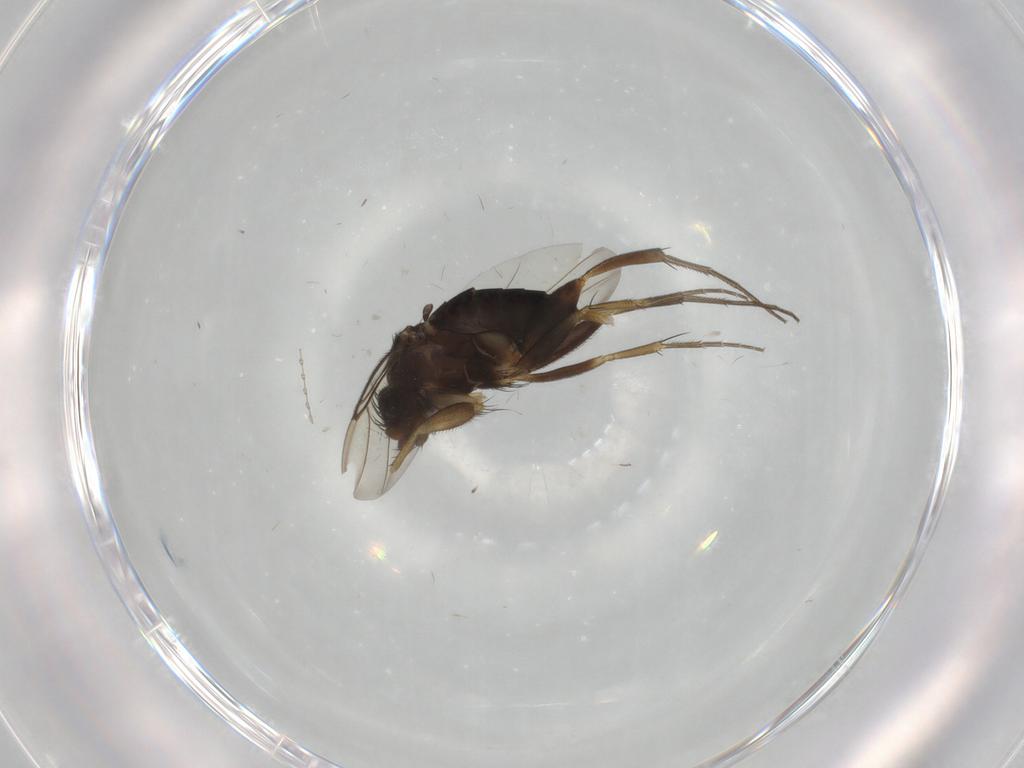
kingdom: Animalia
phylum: Arthropoda
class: Insecta
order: Diptera
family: Phoridae
